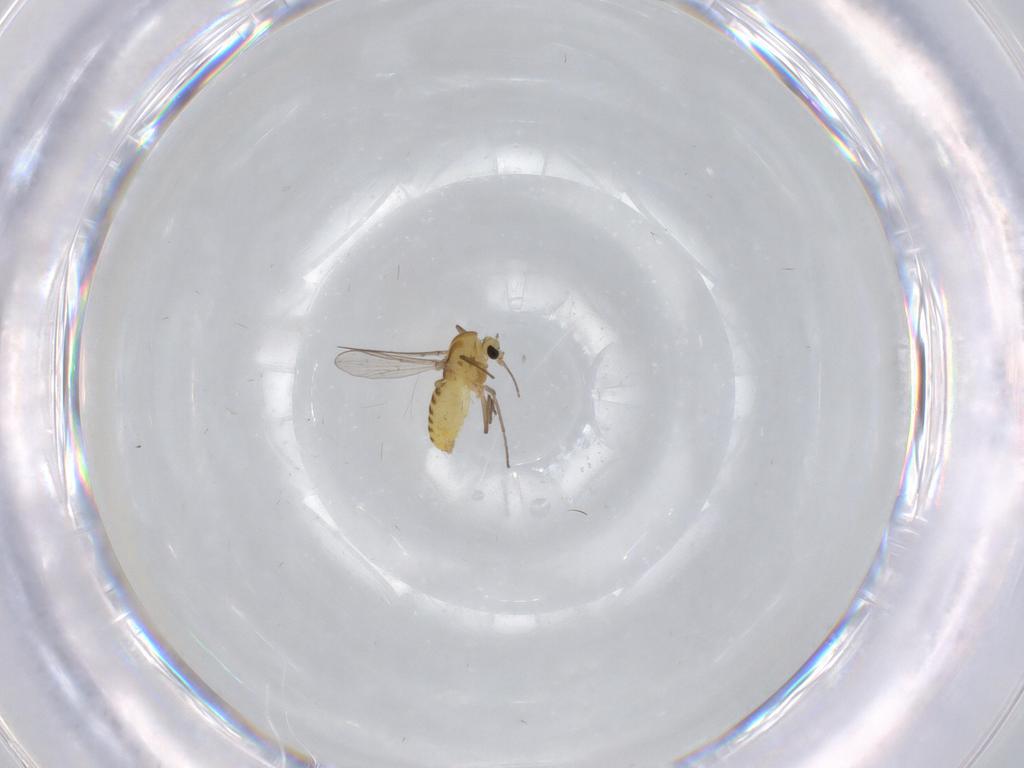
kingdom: Animalia
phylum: Arthropoda
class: Insecta
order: Diptera
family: Chironomidae
